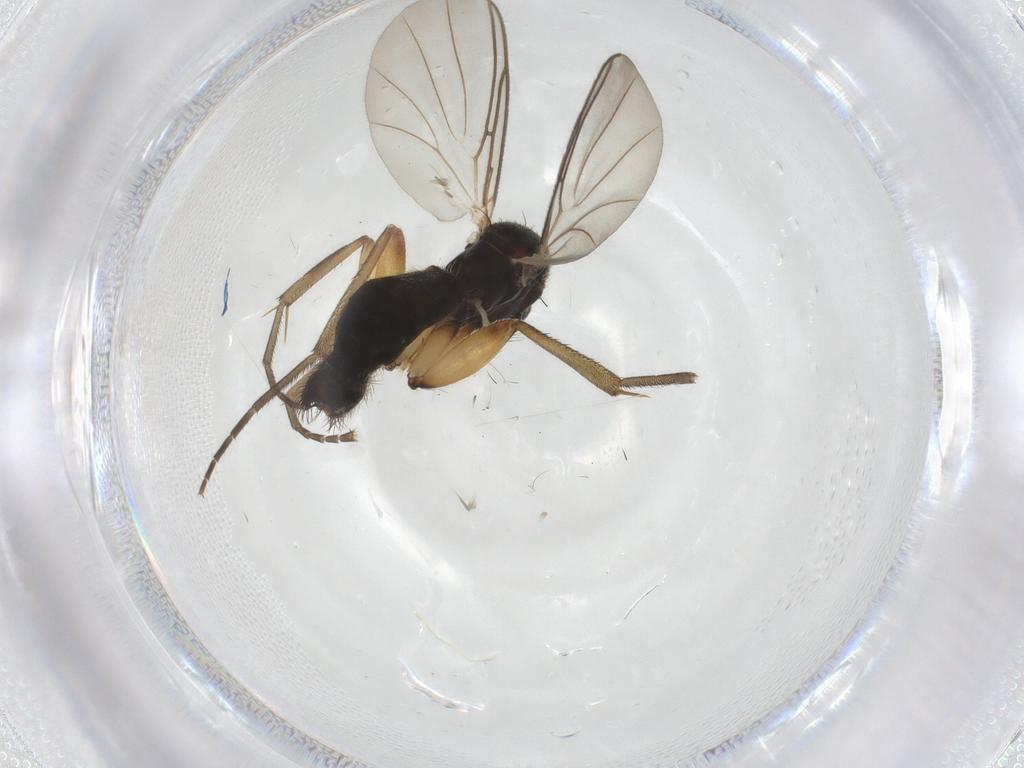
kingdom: Animalia
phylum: Arthropoda
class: Insecta
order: Diptera
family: Mycetophilidae
